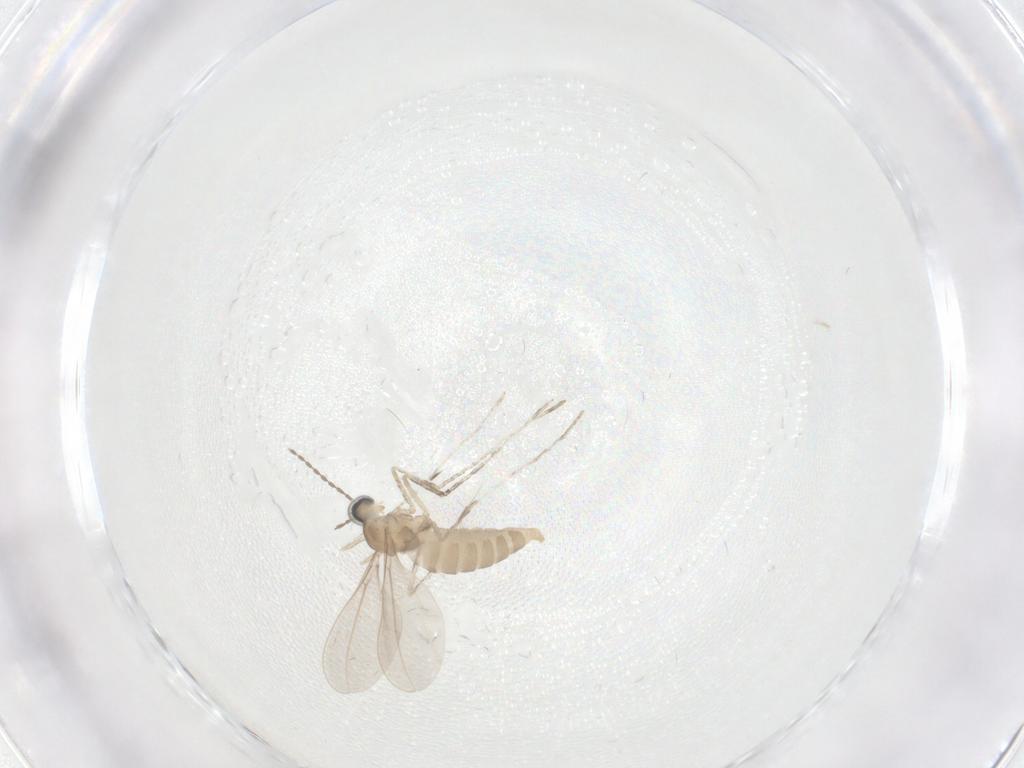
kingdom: Animalia
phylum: Arthropoda
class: Insecta
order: Diptera
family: Cecidomyiidae
